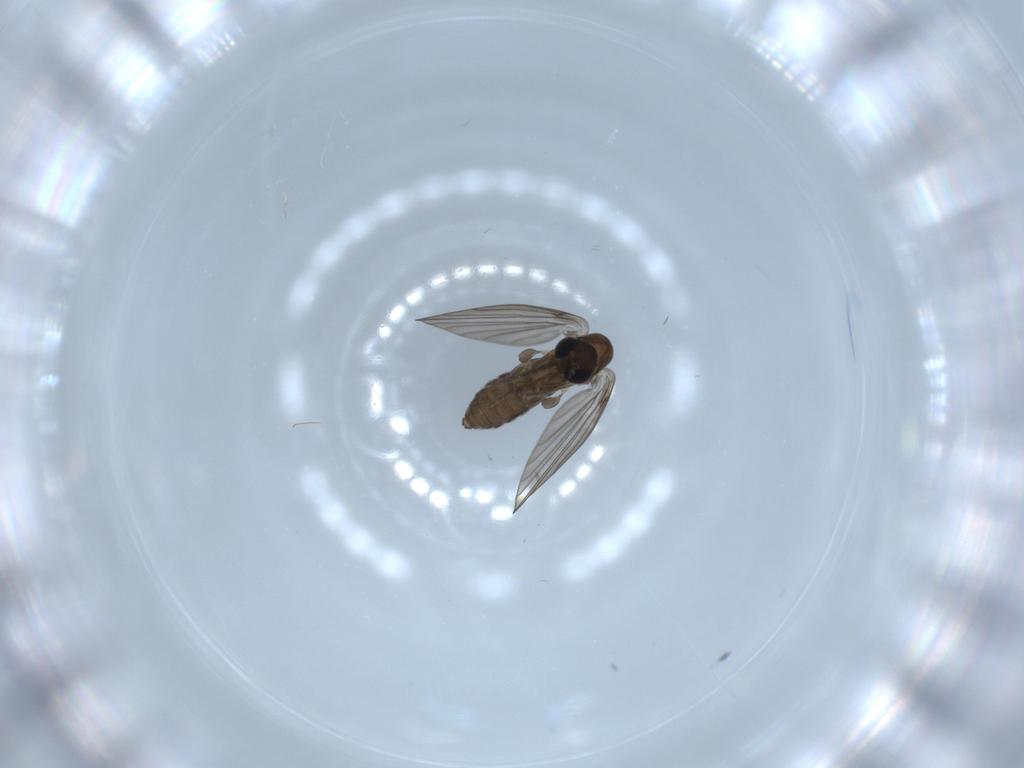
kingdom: Animalia
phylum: Arthropoda
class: Insecta
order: Diptera
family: Psychodidae
